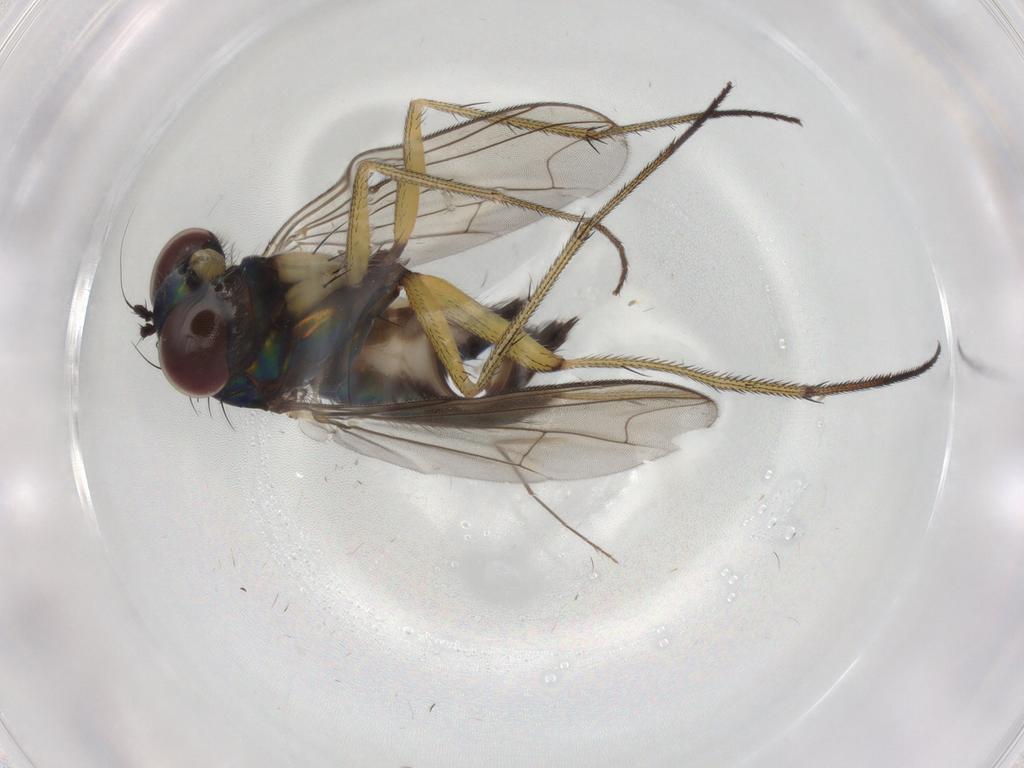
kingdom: Animalia
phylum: Arthropoda
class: Insecta
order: Diptera
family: Dolichopodidae
